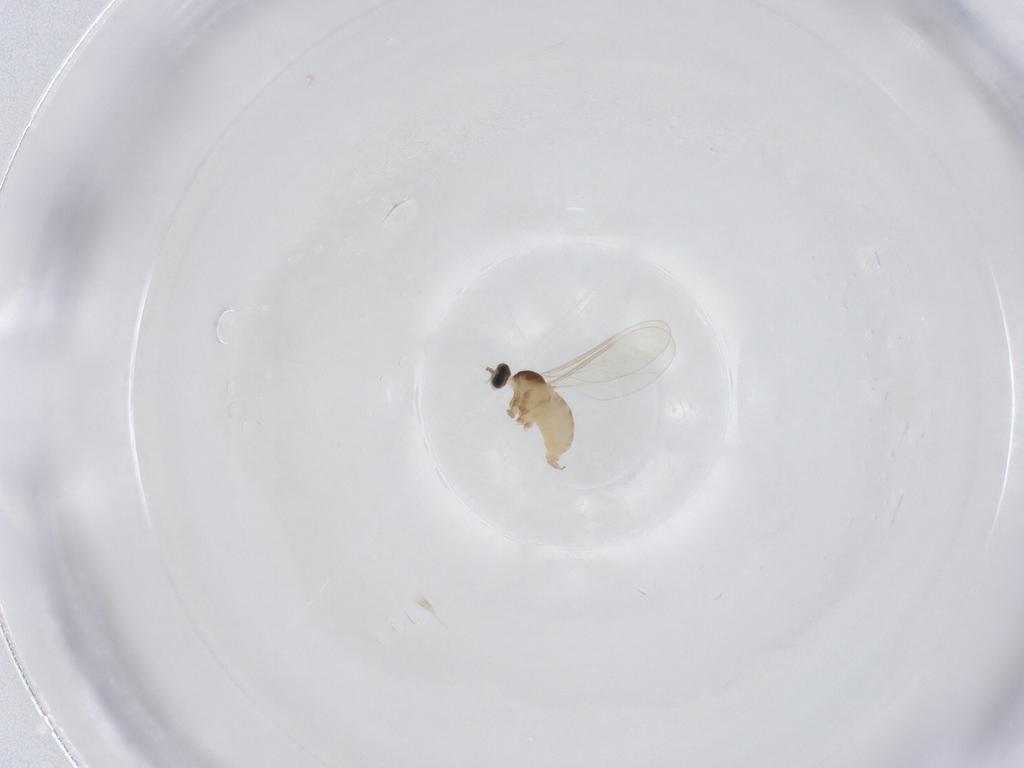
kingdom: Animalia
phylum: Arthropoda
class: Insecta
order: Diptera
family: Cecidomyiidae
